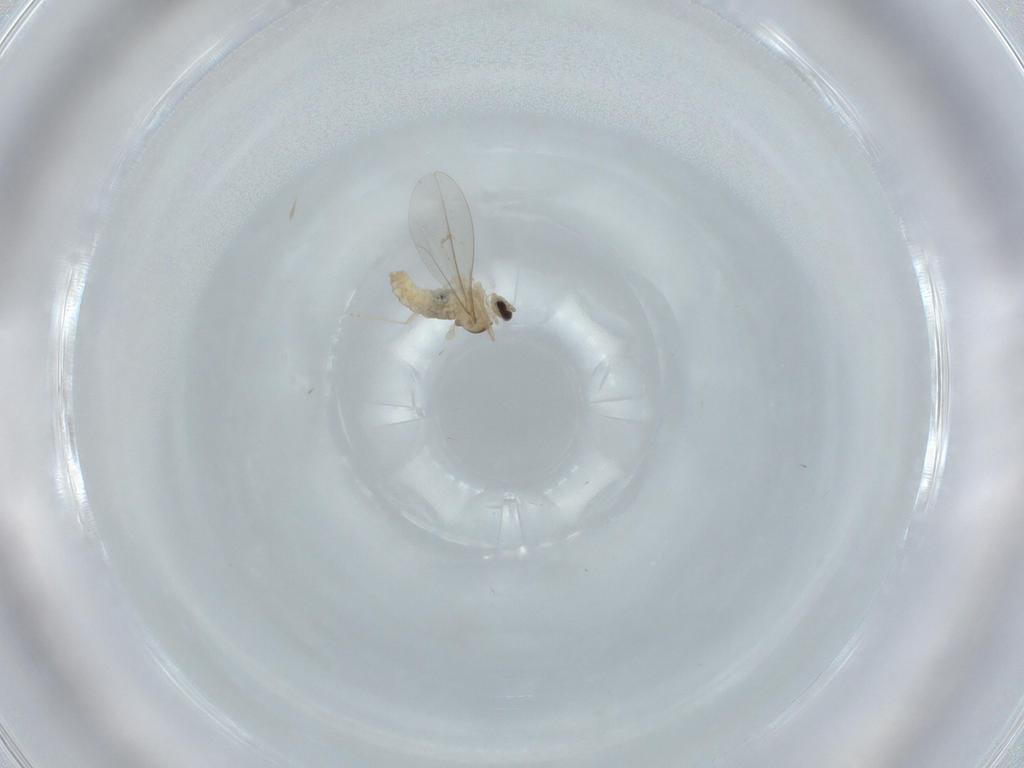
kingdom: Animalia
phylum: Arthropoda
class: Insecta
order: Diptera
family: Cecidomyiidae
